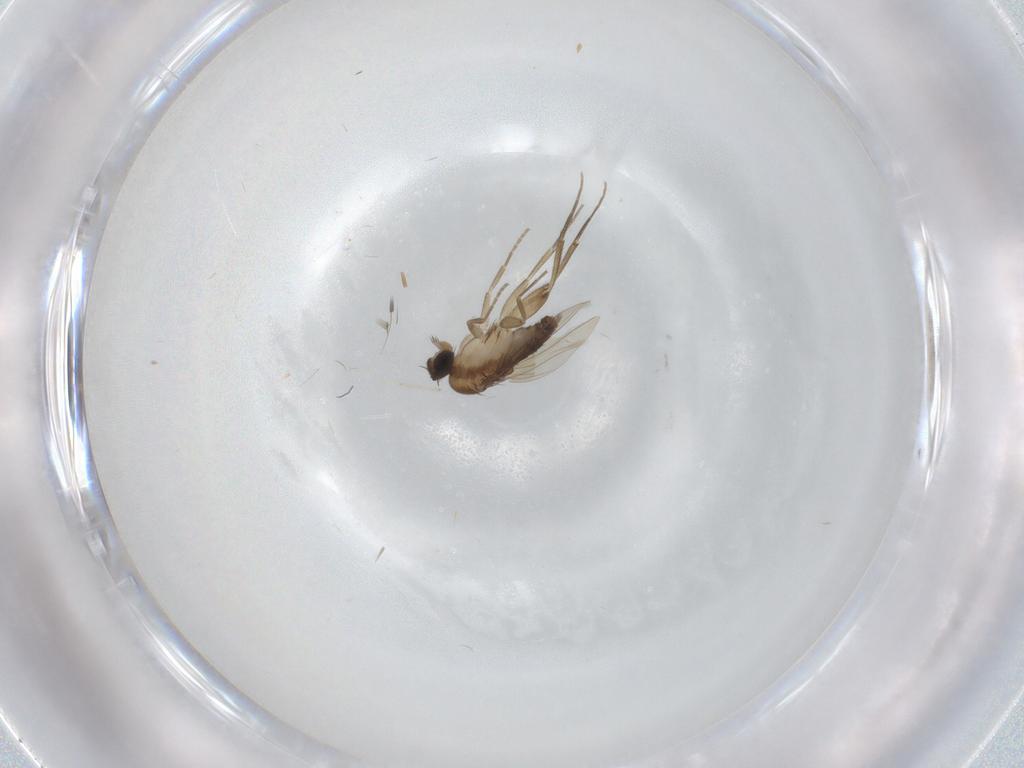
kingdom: Animalia
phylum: Arthropoda
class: Insecta
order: Diptera
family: Phoridae
